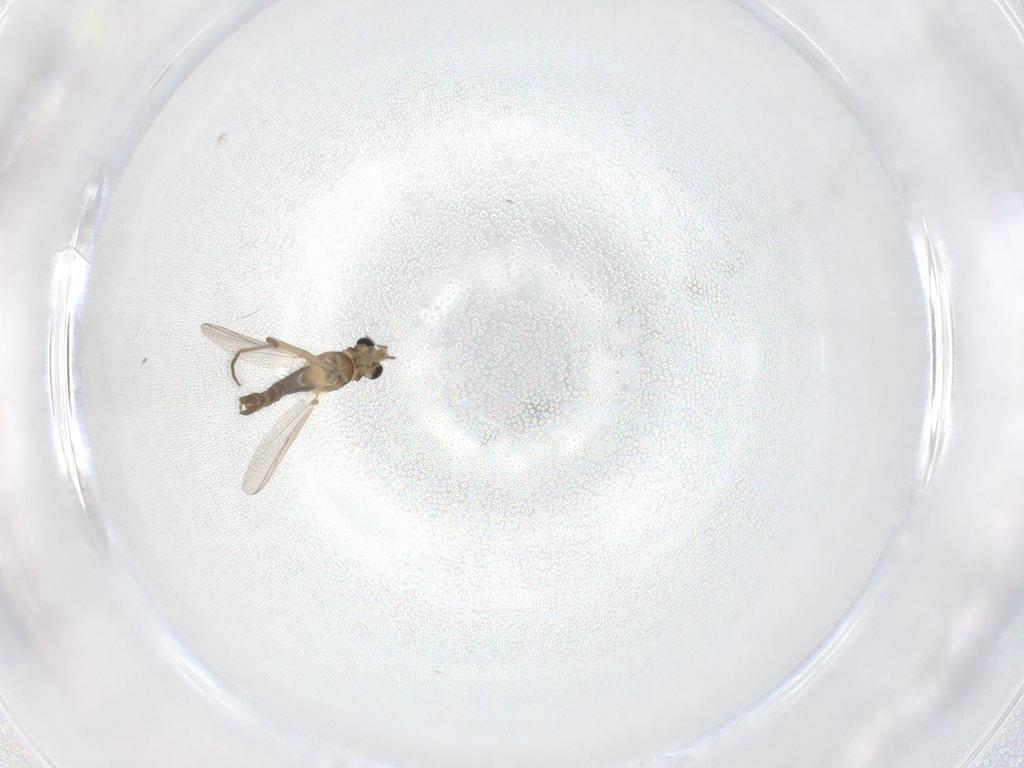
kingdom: Animalia
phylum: Arthropoda
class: Insecta
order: Diptera
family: Chironomidae
